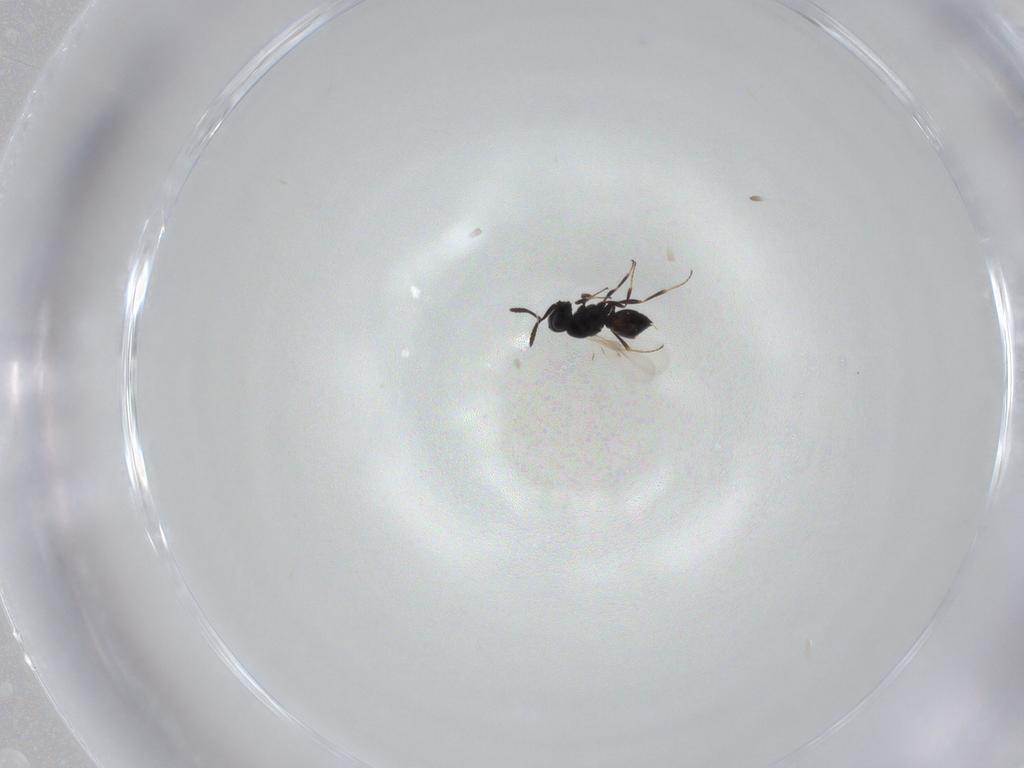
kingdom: Animalia
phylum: Arthropoda
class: Insecta
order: Hymenoptera
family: Scelionidae
